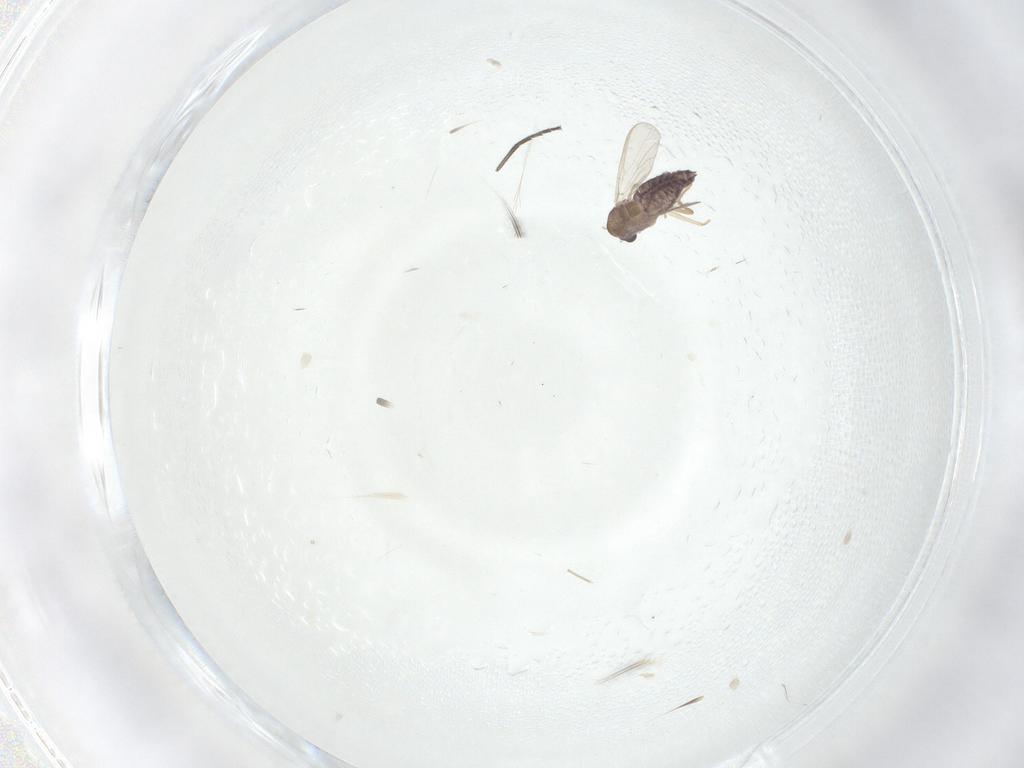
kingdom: Animalia
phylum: Arthropoda
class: Insecta
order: Diptera
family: Sciaridae
